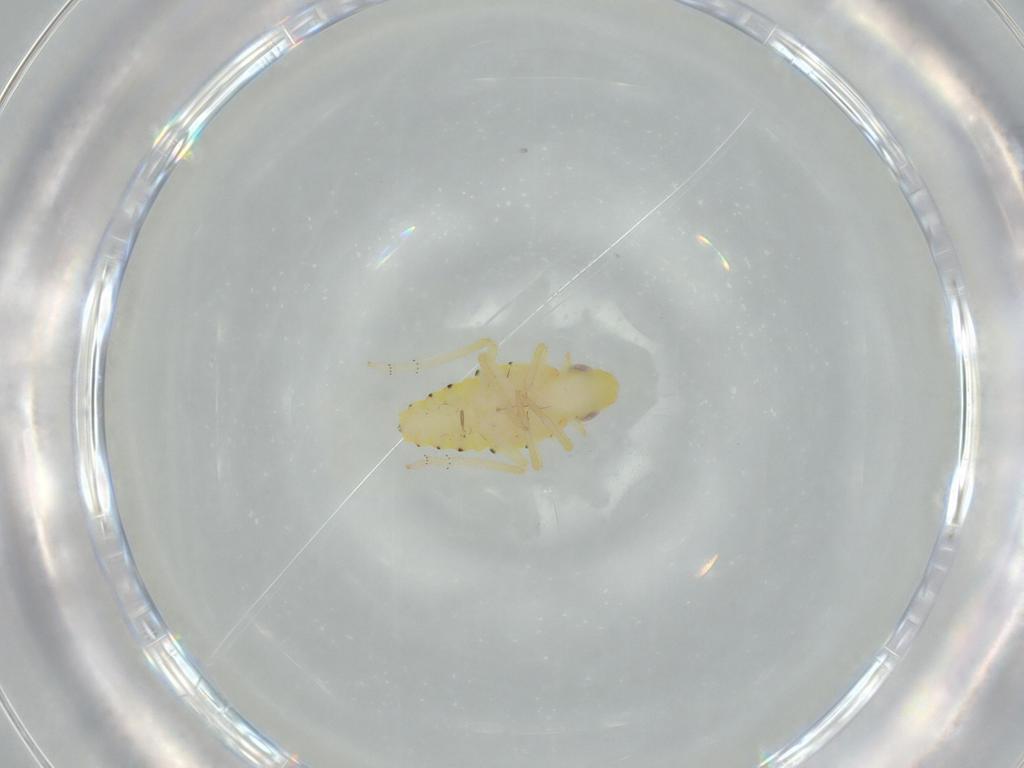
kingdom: Animalia
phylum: Arthropoda
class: Insecta
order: Hemiptera
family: Tropiduchidae
